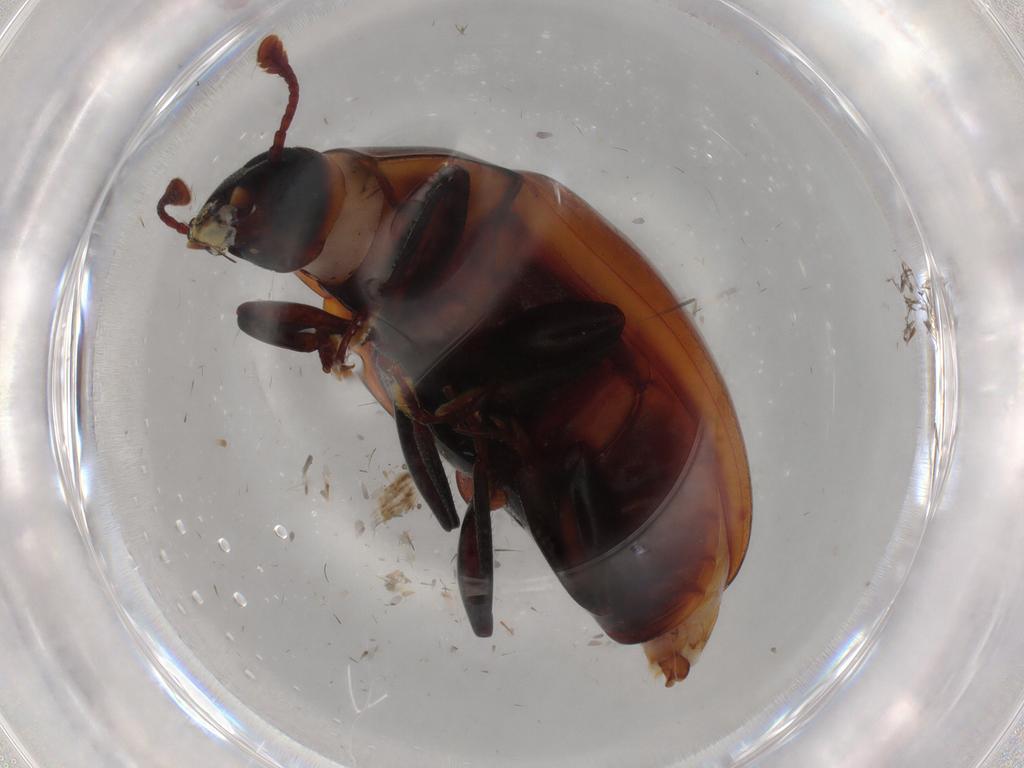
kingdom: Animalia
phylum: Arthropoda
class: Insecta
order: Coleoptera
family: Zopheridae
